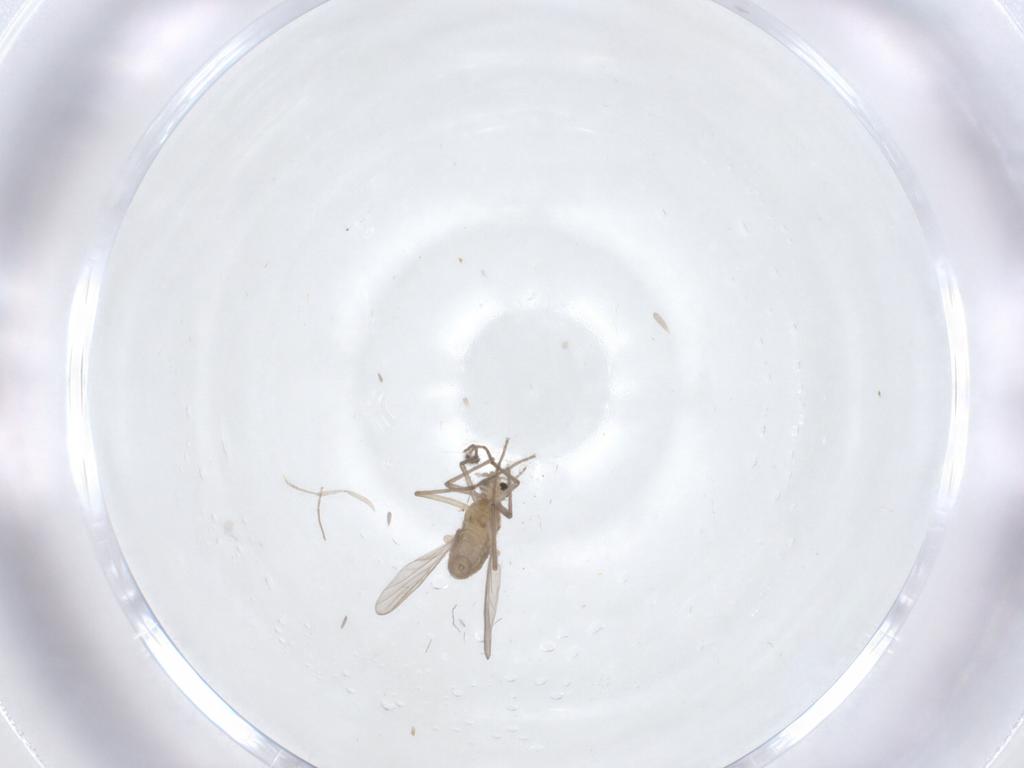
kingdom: Animalia
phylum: Arthropoda
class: Insecta
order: Diptera
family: Sciaridae
